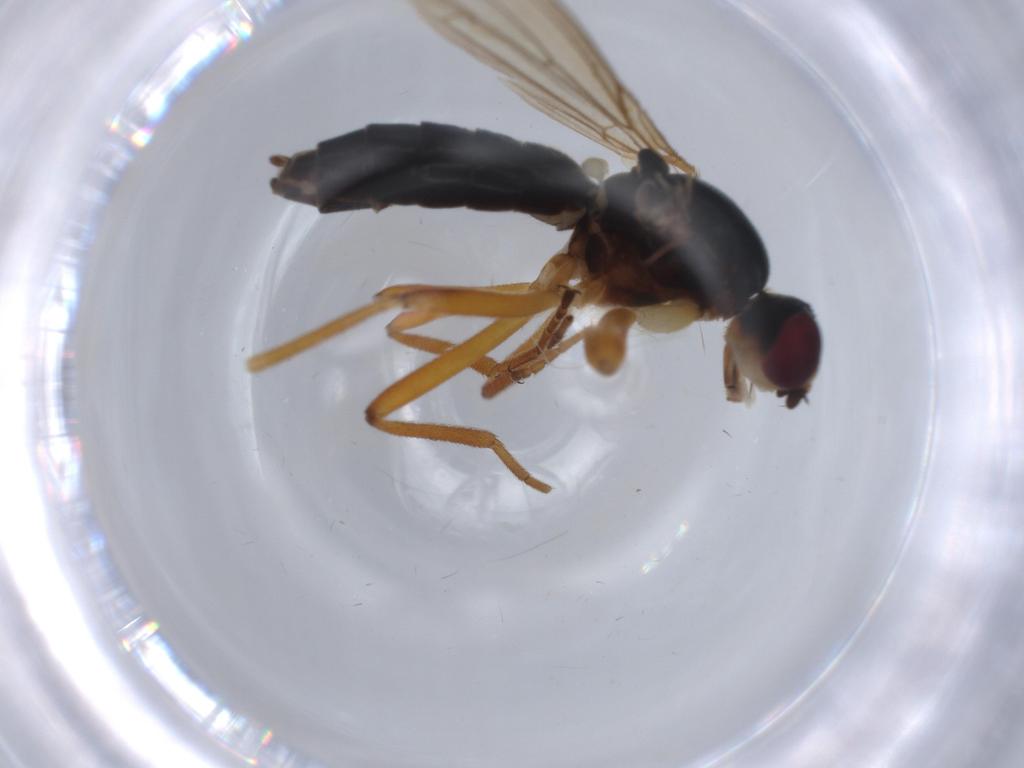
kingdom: Animalia
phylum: Arthropoda
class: Insecta
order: Diptera
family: Scathophagidae
